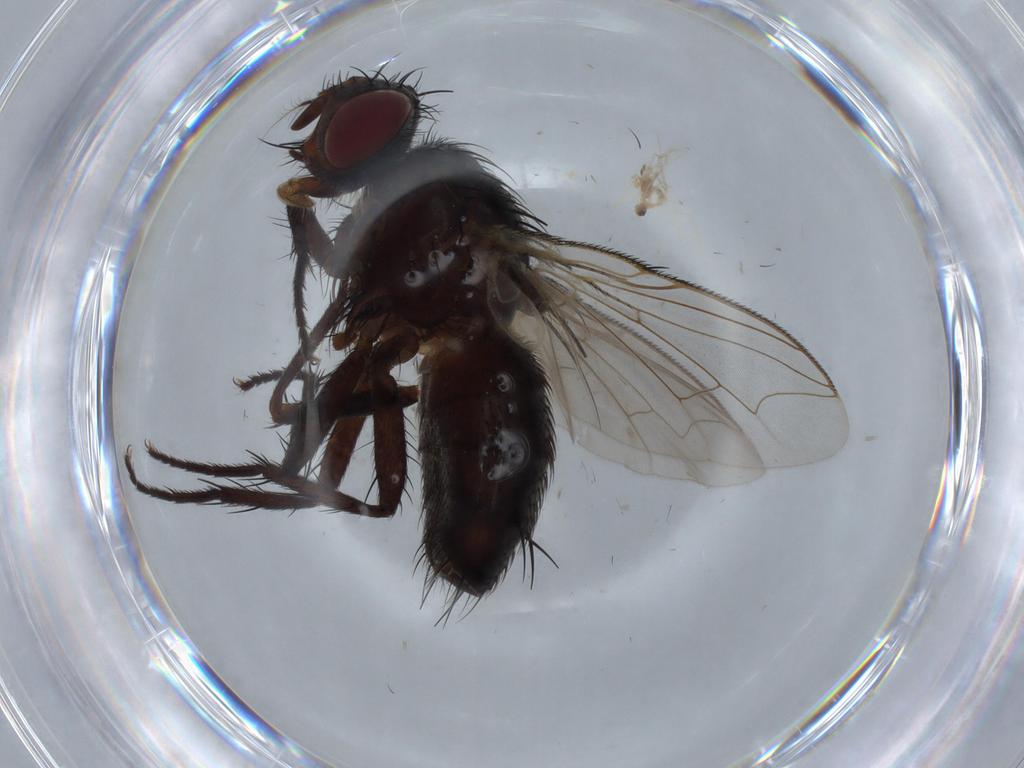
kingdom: Animalia
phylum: Arthropoda
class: Insecta
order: Diptera
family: Sarcophagidae
